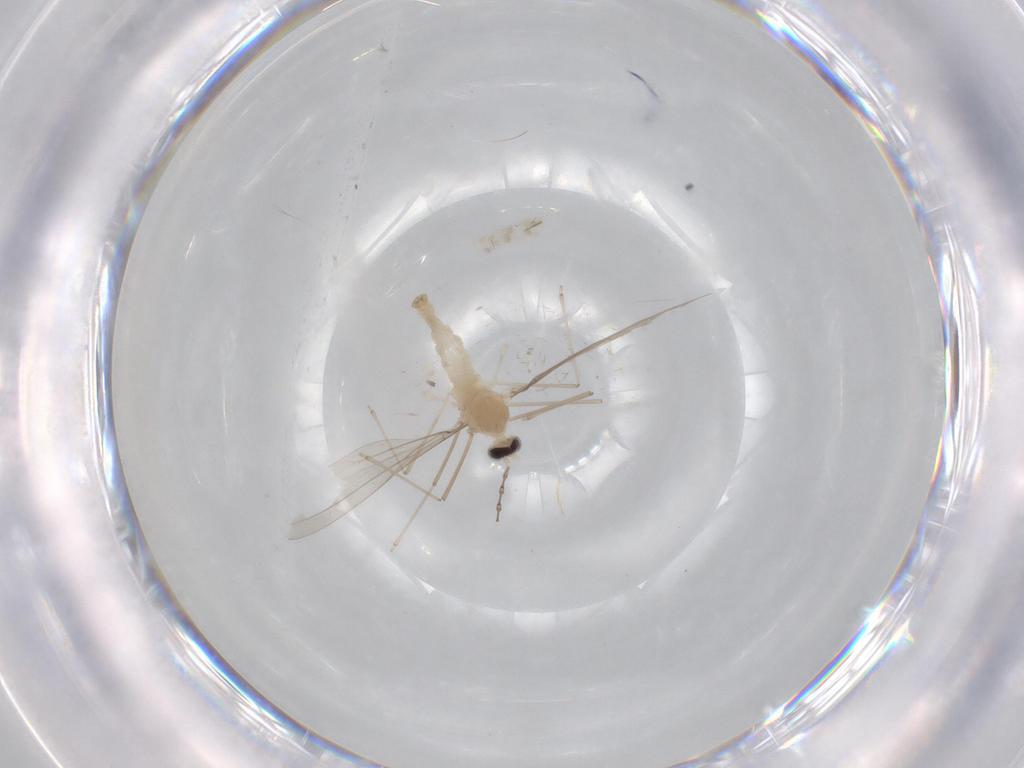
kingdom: Animalia
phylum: Arthropoda
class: Insecta
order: Diptera
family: Cecidomyiidae
